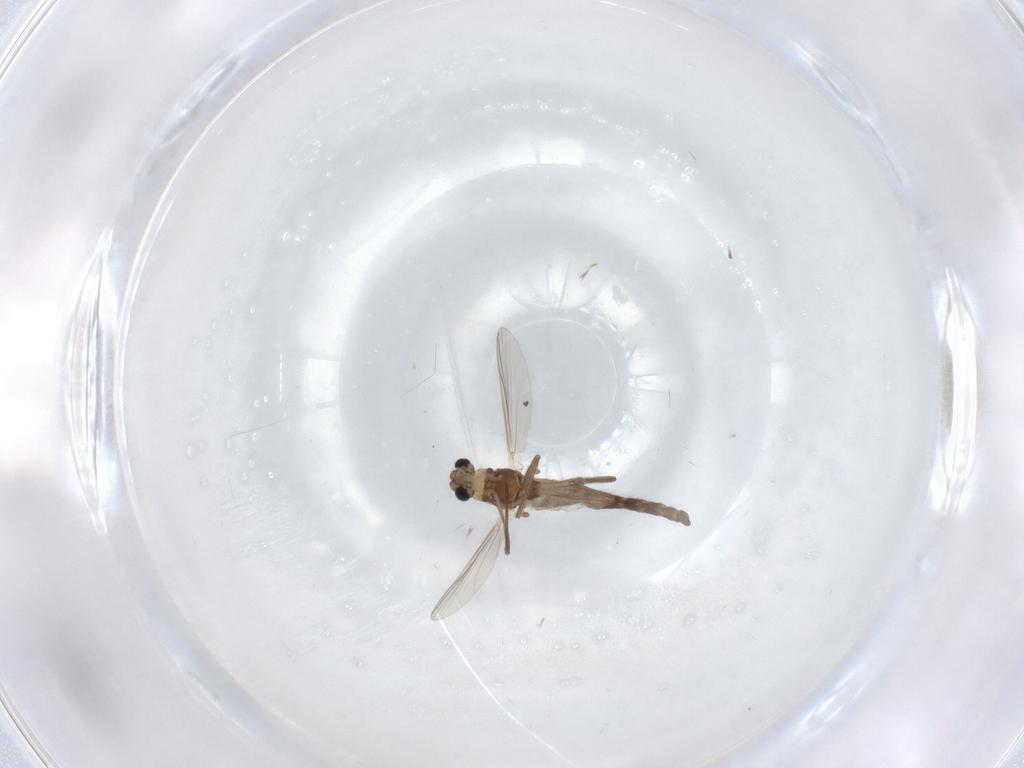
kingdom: Animalia
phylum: Arthropoda
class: Insecta
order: Diptera
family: Chironomidae
